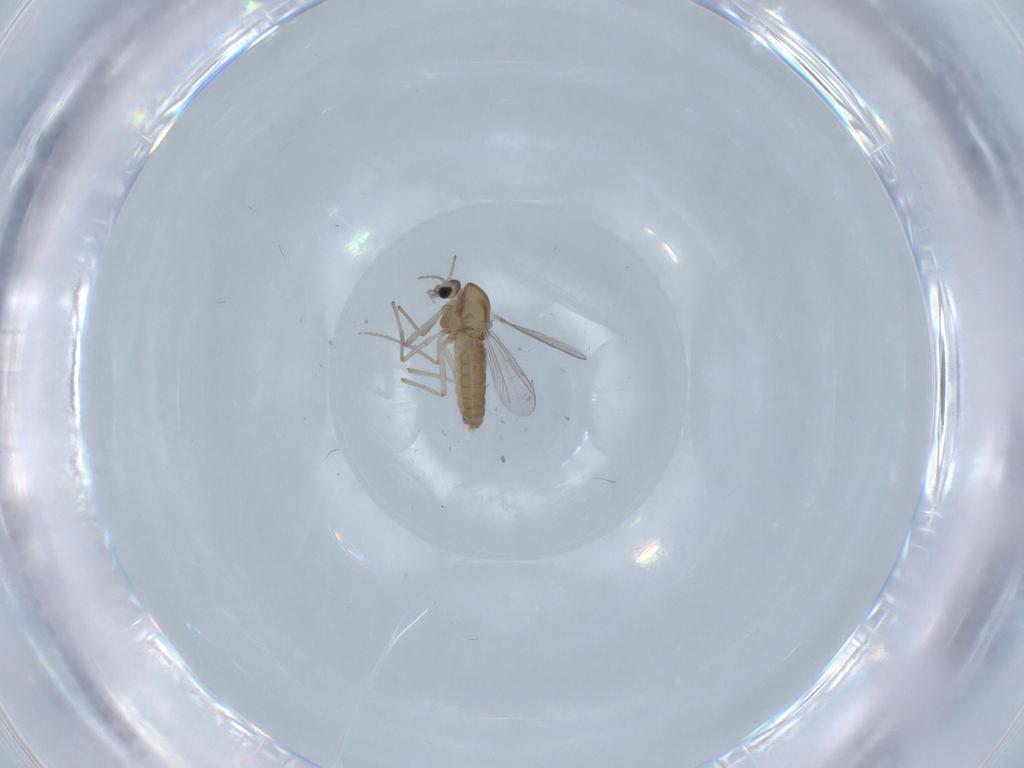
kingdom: Animalia
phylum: Arthropoda
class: Insecta
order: Diptera
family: Chironomidae
